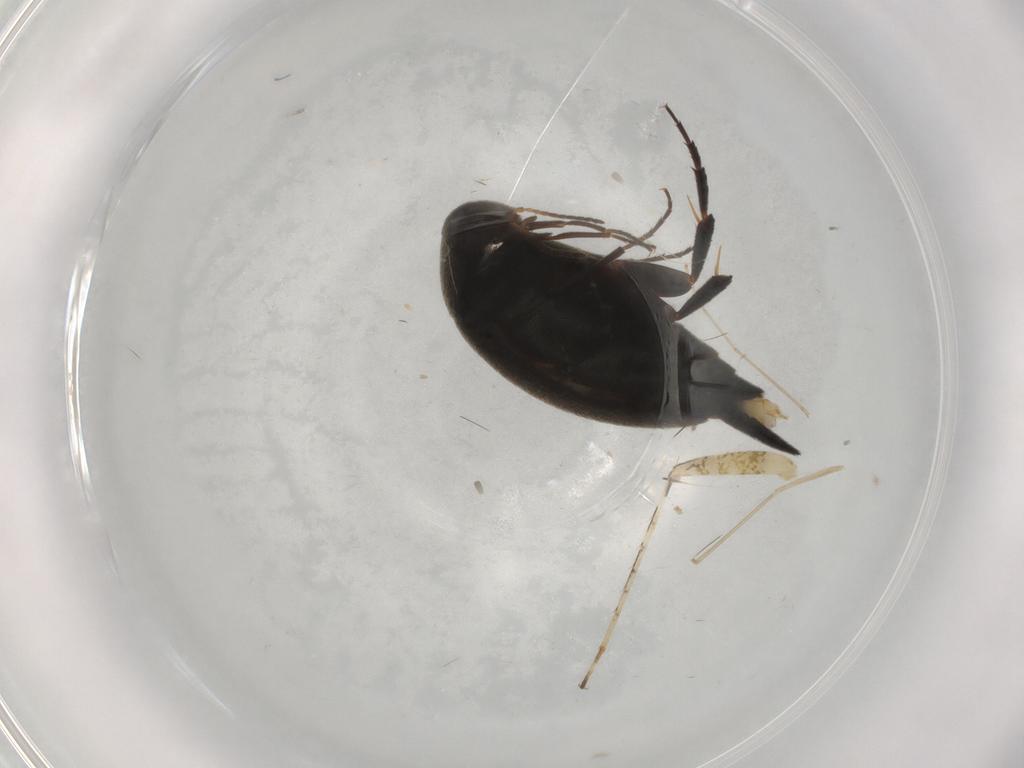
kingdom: Animalia
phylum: Arthropoda
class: Insecta
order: Coleoptera
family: Mordellidae
